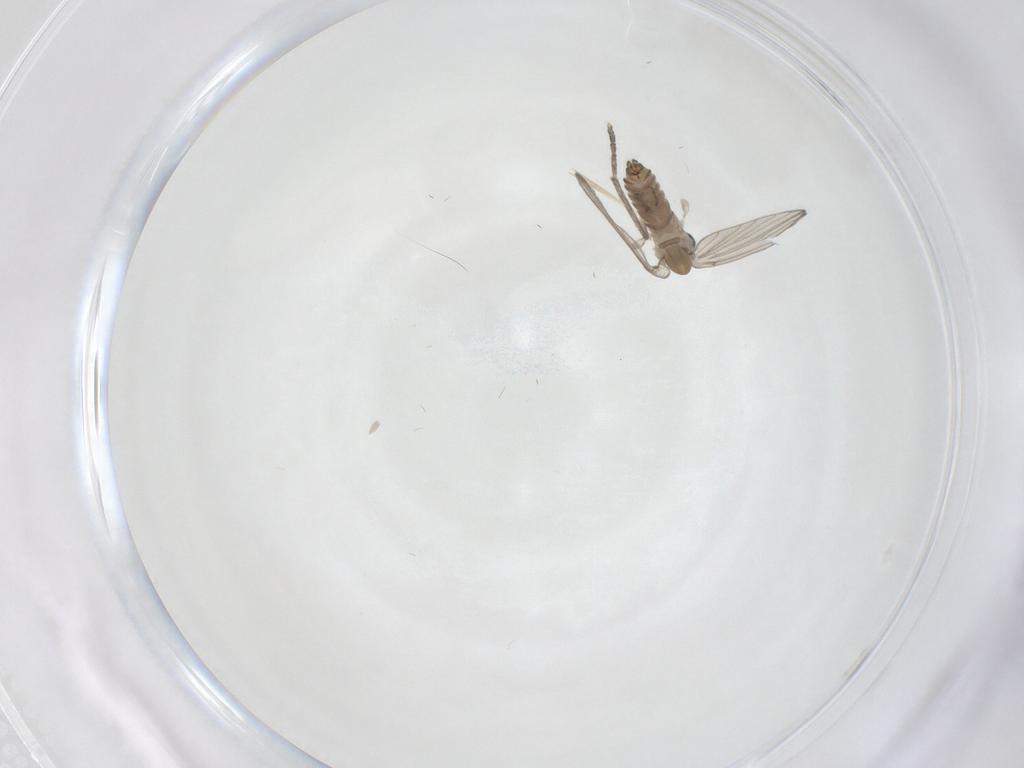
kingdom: Animalia
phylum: Arthropoda
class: Insecta
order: Diptera
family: Psychodidae
